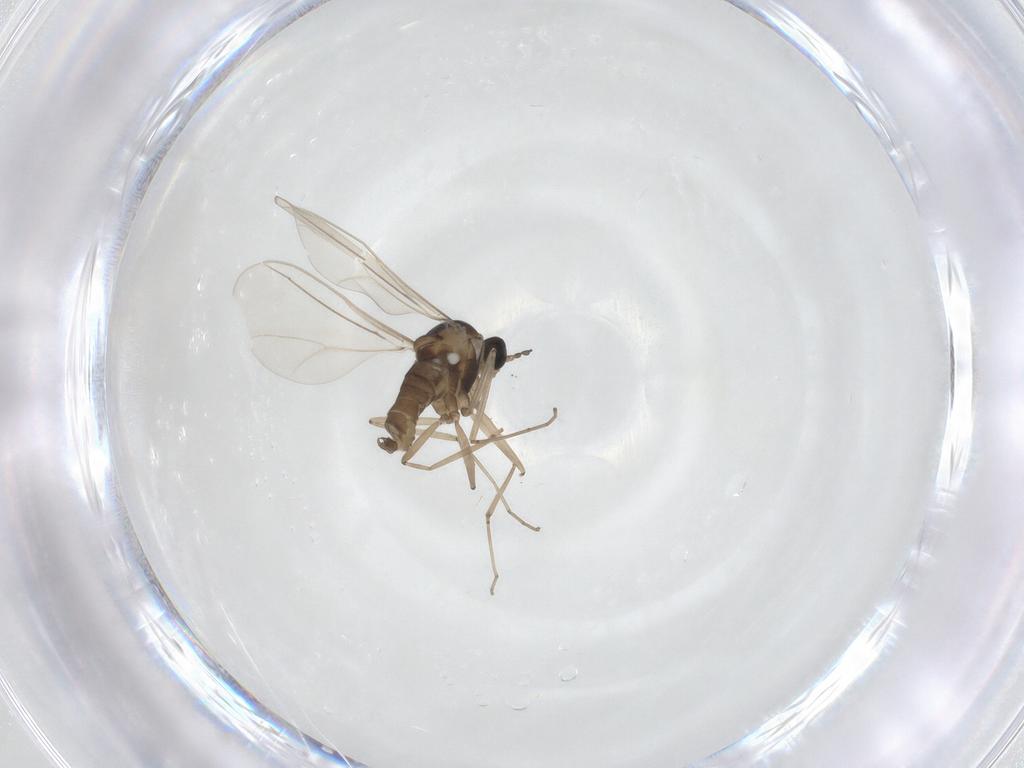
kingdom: Animalia
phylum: Arthropoda
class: Insecta
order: Diptera
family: Cecidomyiidae
